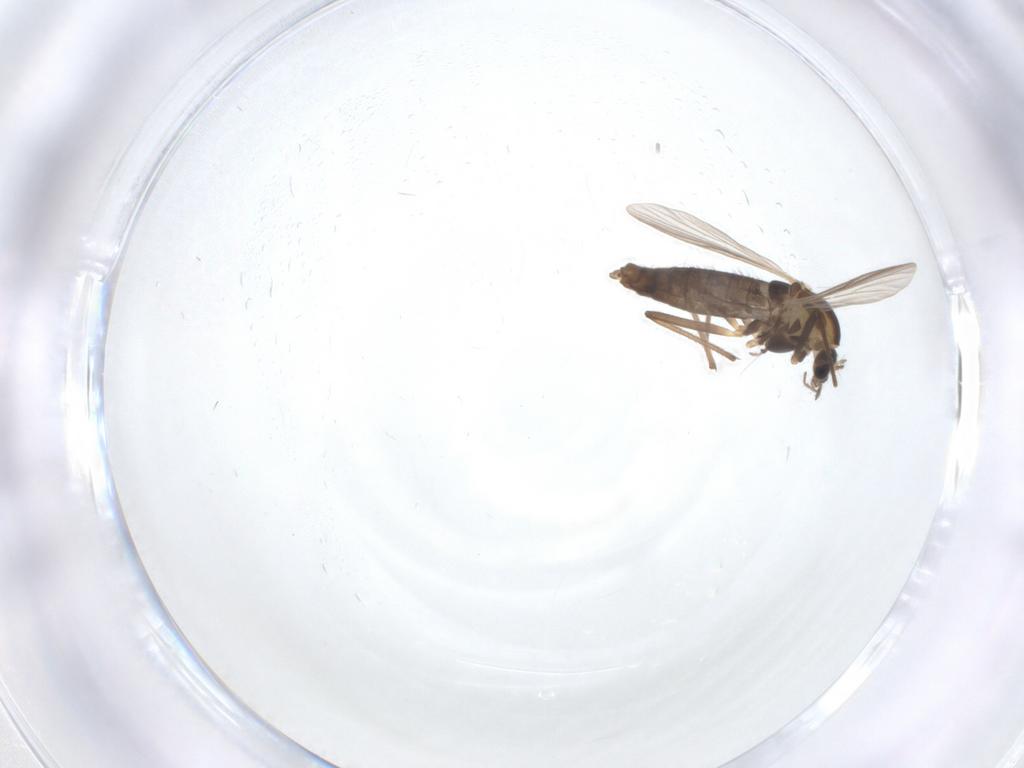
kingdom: Animalia
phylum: Arthropoda
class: Insecta
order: Diptera
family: Chironomidae
